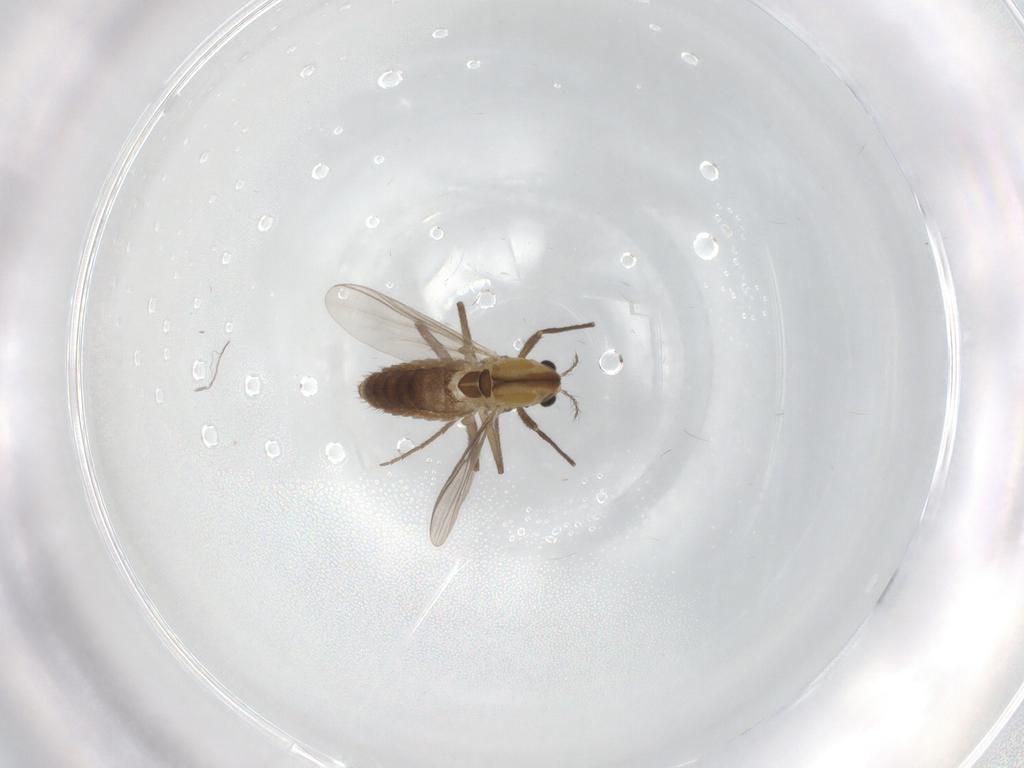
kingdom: Animalia
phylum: Arthropoda
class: Insecta
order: Diptera
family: Chironomidae
